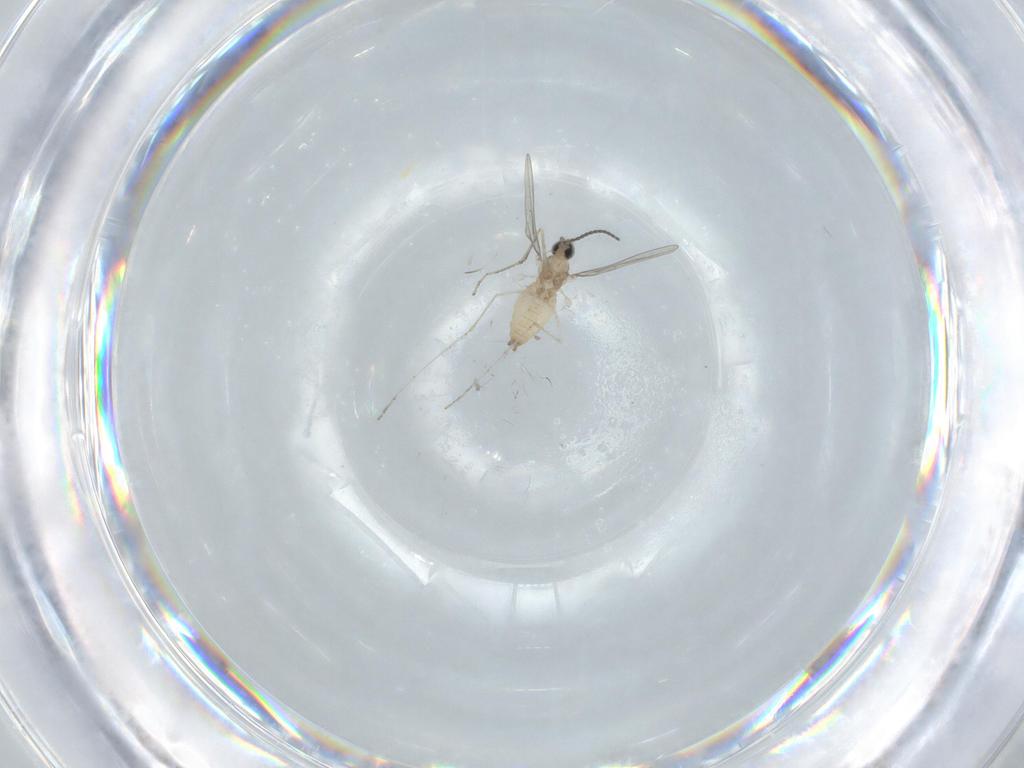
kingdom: Animalia
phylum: Arthropoda
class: Insecta
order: Diptera
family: Cecidomyiidae
